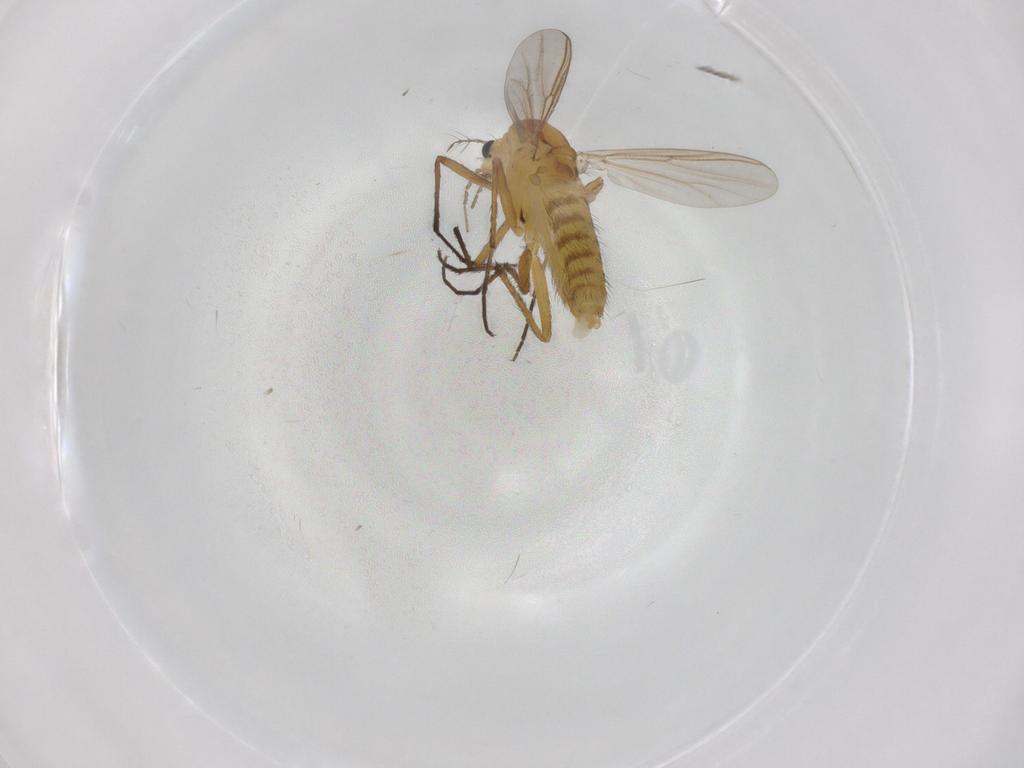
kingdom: Animalia
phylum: Arthropoda
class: Insecta
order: Diptera
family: Chironomidae
